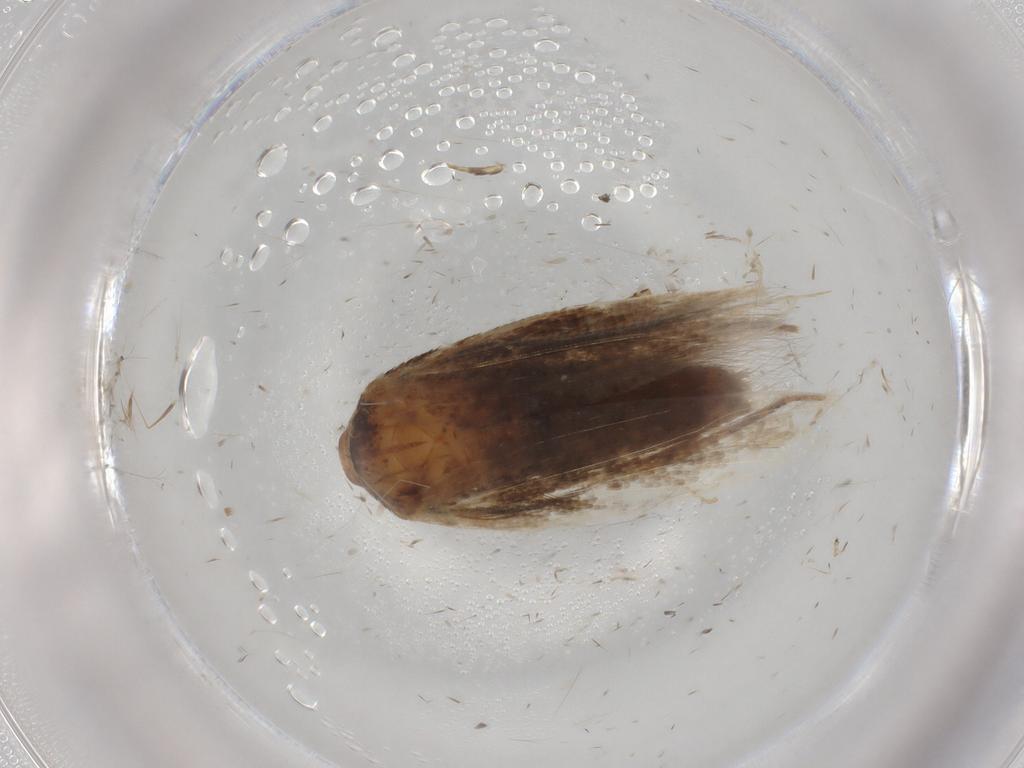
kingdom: Animalia
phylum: Arthropoda
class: Insecta
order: Lepidoptera
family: Cosmopterigidae
